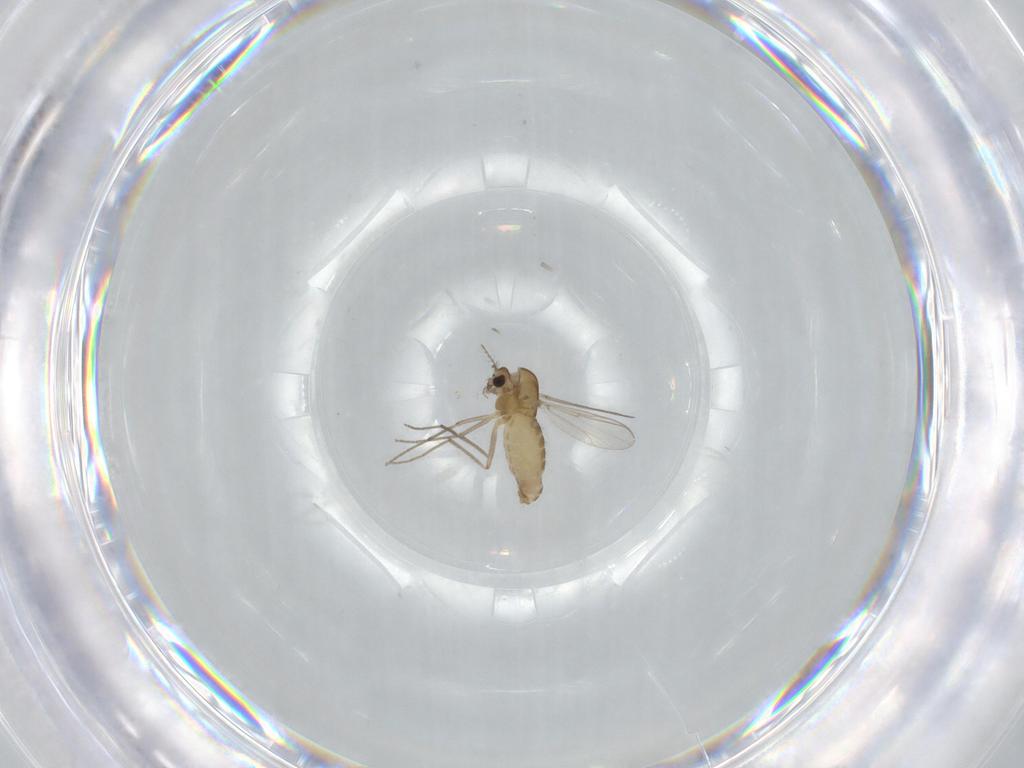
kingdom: Animalia
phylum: Arthropoda
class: Insecta
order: Diptera
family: Chironomidae
